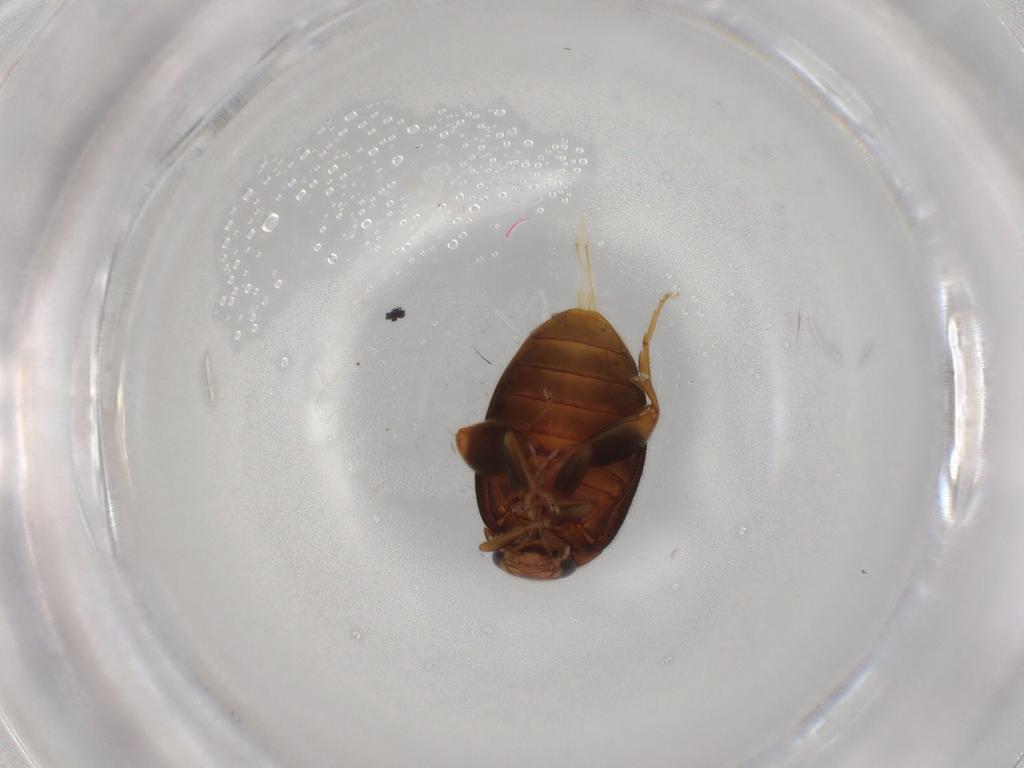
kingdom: Animalia
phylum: Arthropoda
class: Insecta
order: Coleoptera
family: Scirtidae
